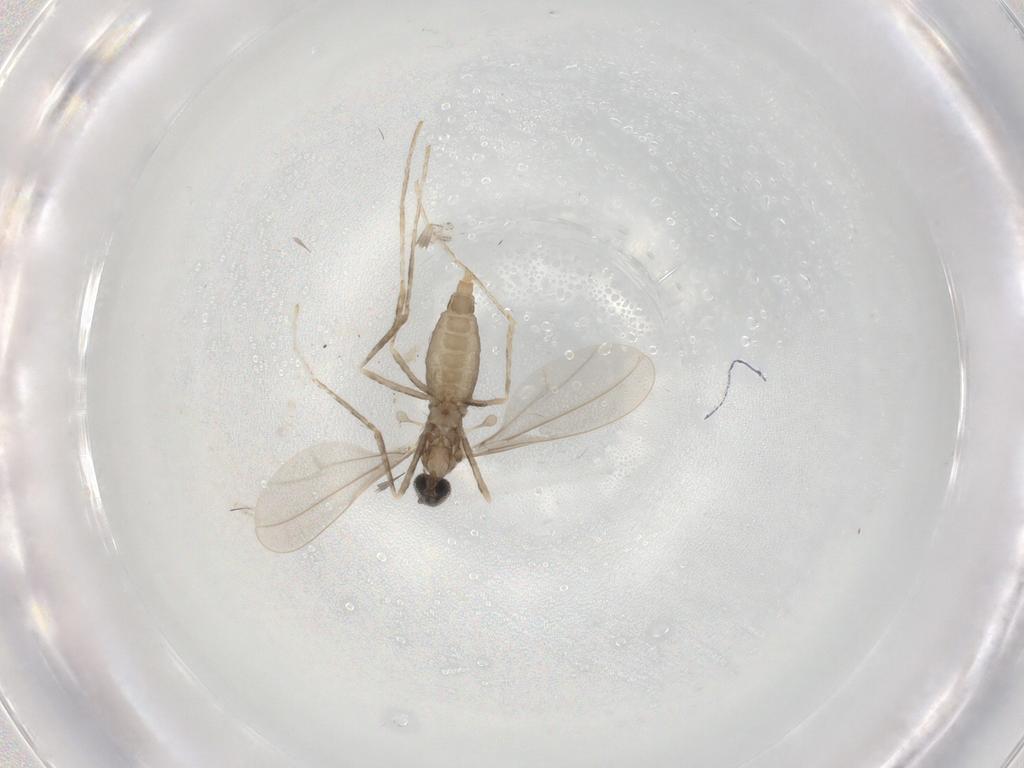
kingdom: Animalia
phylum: Arthropoda
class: Insecta
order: Diptera
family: Cecidomyiidae
